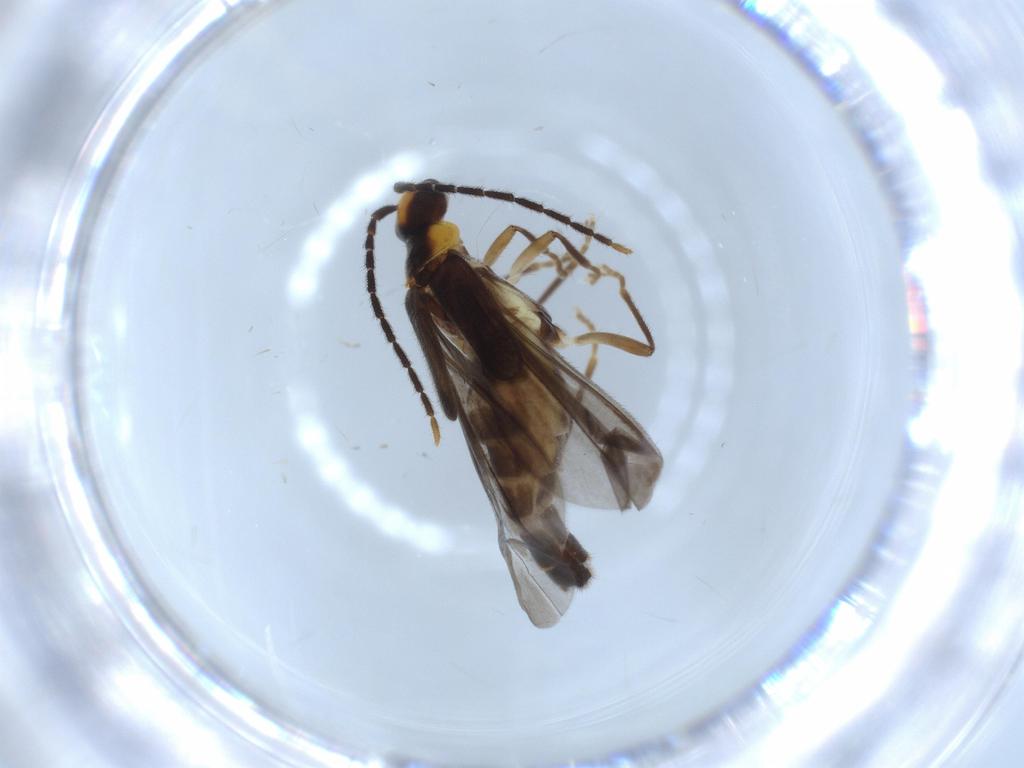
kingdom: Animalia
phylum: Arthropoda
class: Insecta
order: Coleoptera
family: Cantharidae
